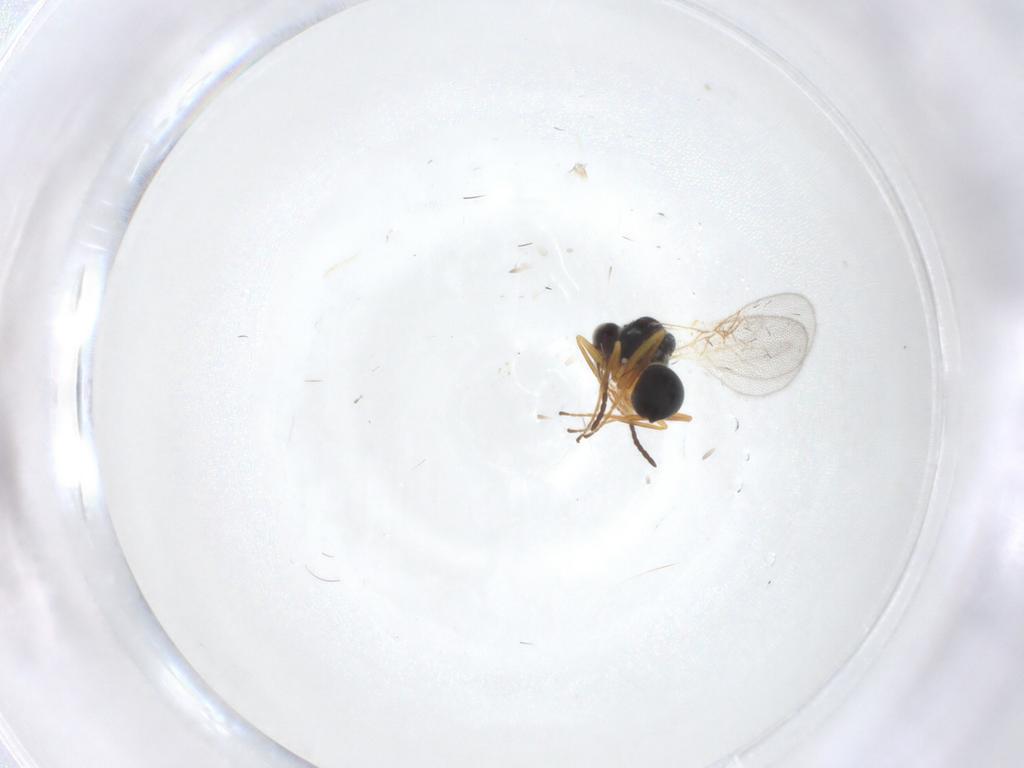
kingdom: Animalia
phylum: Arthropoda
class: Insecta
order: Hymenoptera
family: Figitidae
